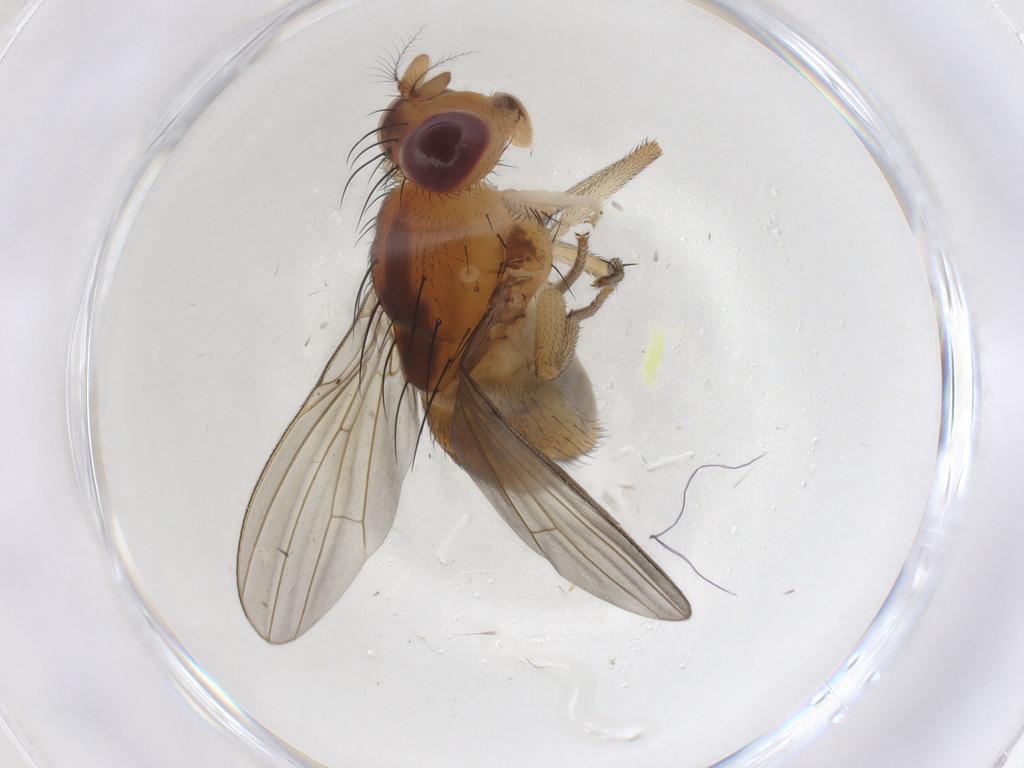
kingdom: Animalia
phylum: Arthropoda
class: Insecta
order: Diptera
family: Lauxaniidae
